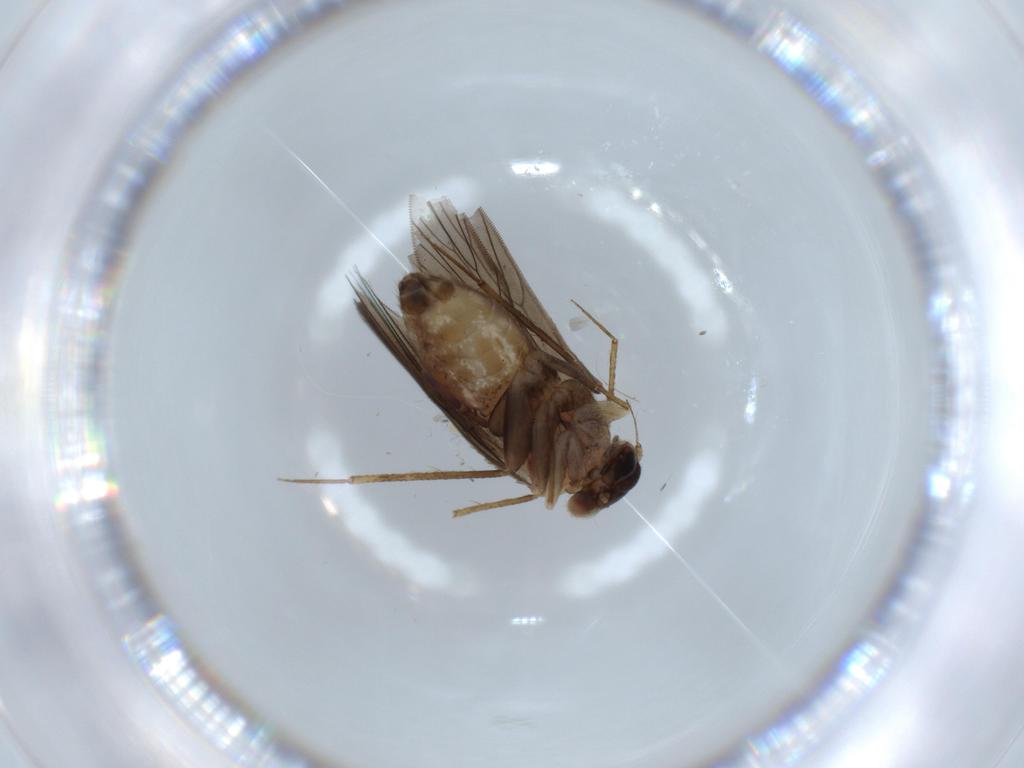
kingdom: Animalia
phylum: Arthropoda
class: Insecta
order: Psocodea
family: Lepidopsocidae
